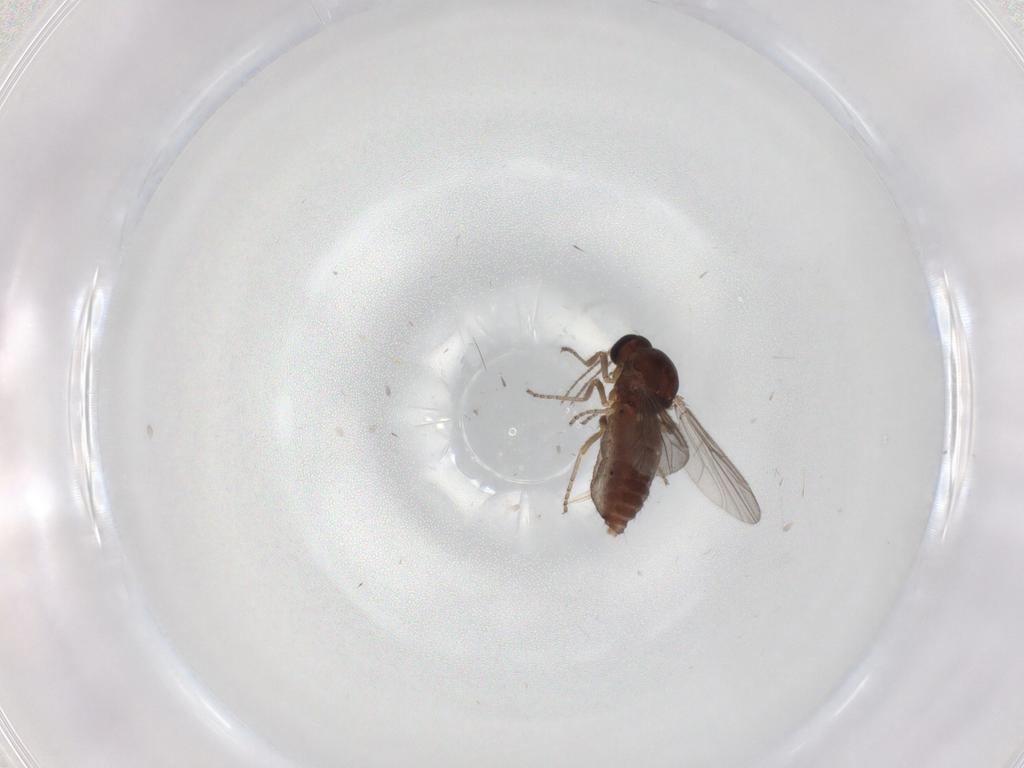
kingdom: Animalia
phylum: Arthropoda
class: Insecta
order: Diptera
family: Ceratopogonidae
